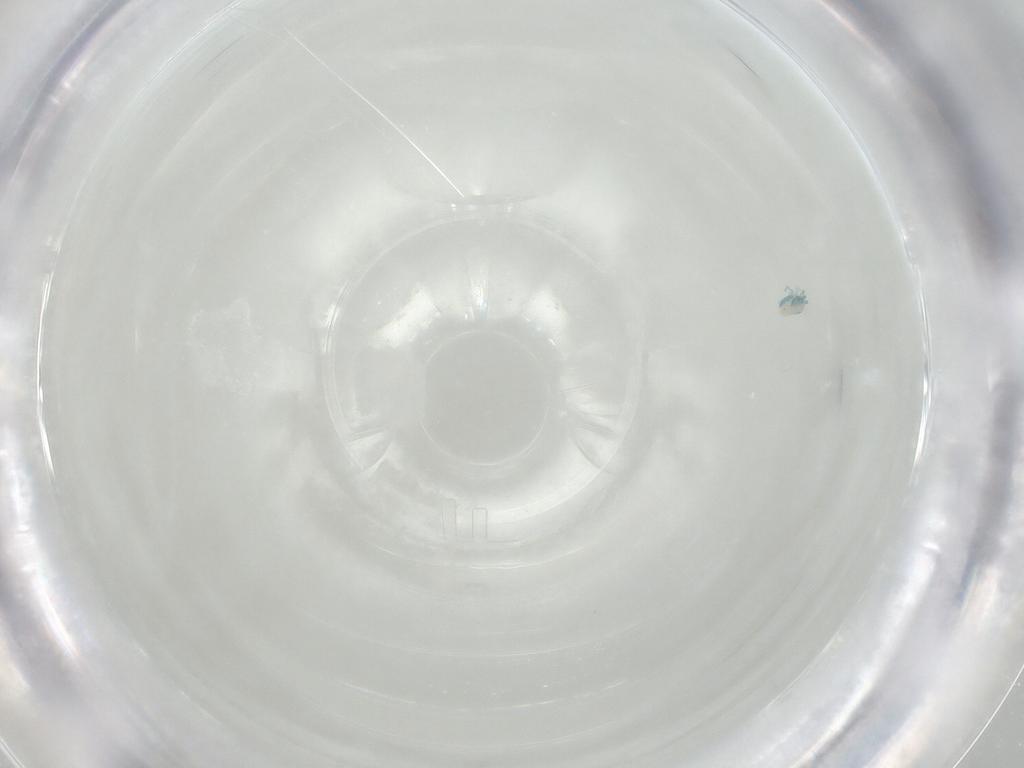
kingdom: Animalia
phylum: Arthropoda
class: Arachnida
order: Trombidiformes
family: Arrenuridae
